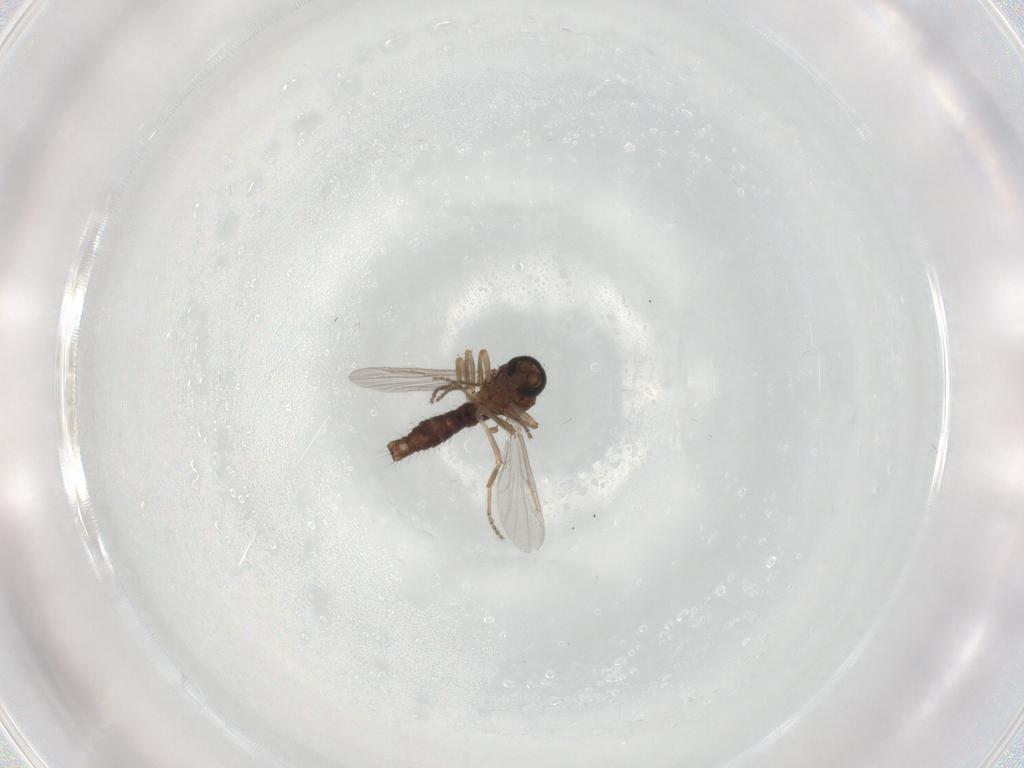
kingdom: Animalia
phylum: Arthropoda
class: Insecta
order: Diptera
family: Ceratopogonidae
